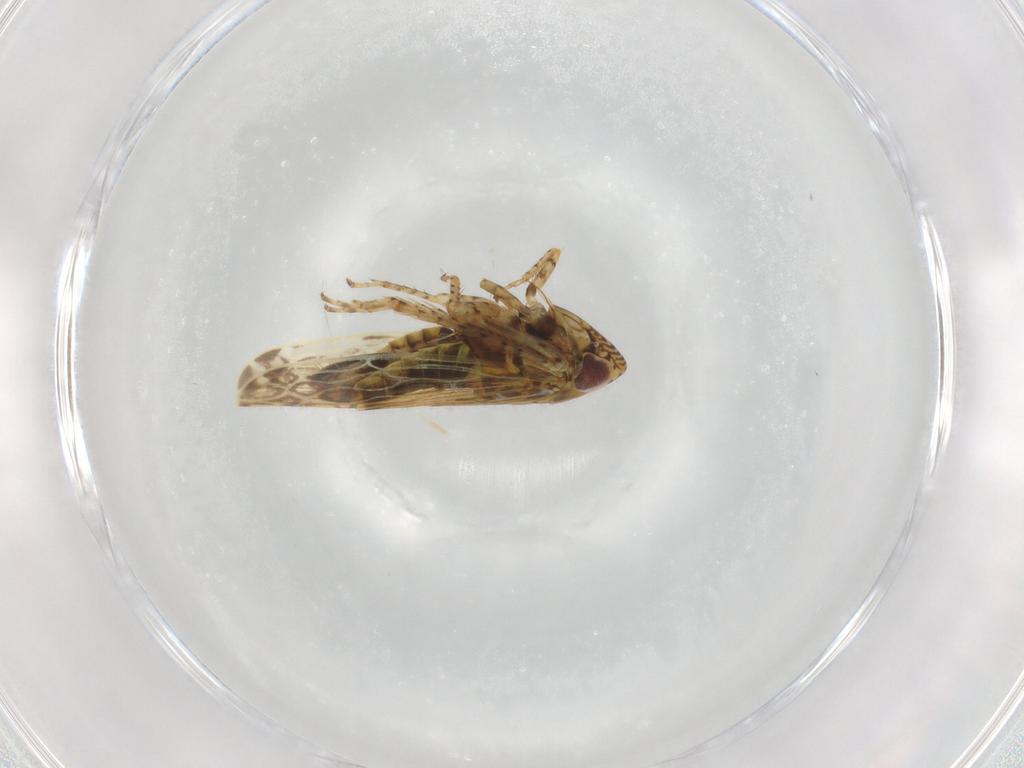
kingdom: Animalia
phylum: Arthropoda
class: Insecta
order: Hemiptera
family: Cicadellidae
